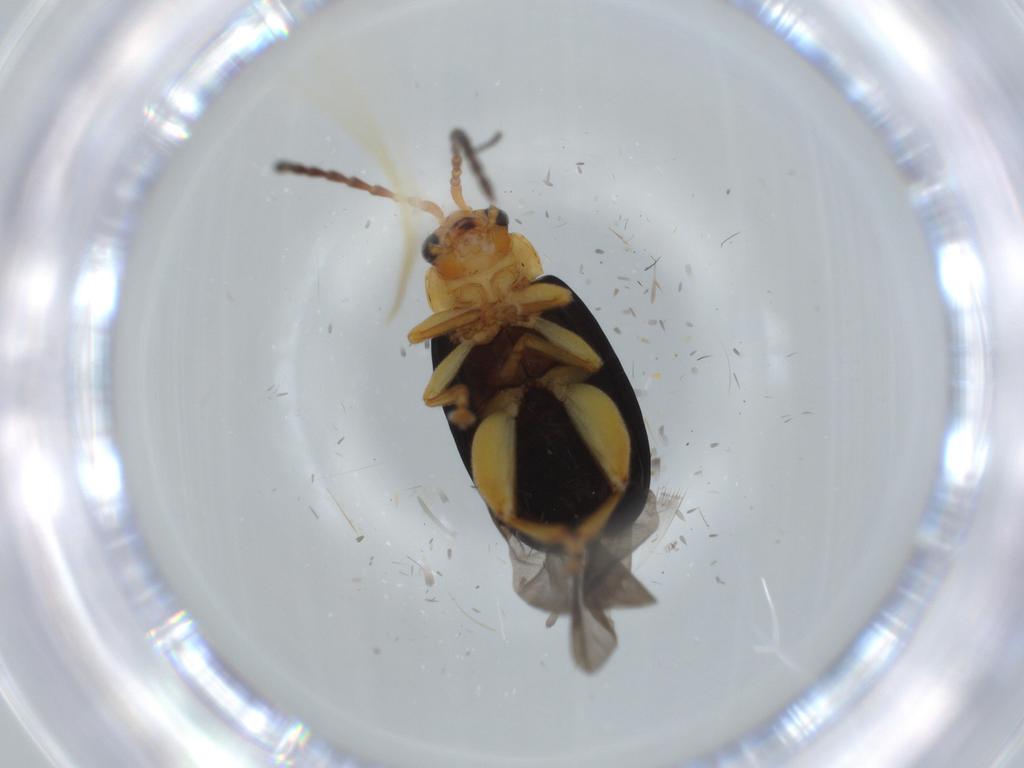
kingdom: Animalia
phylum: Arthropoda
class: Insecta
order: Coleoptera
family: Chrysomelidae
